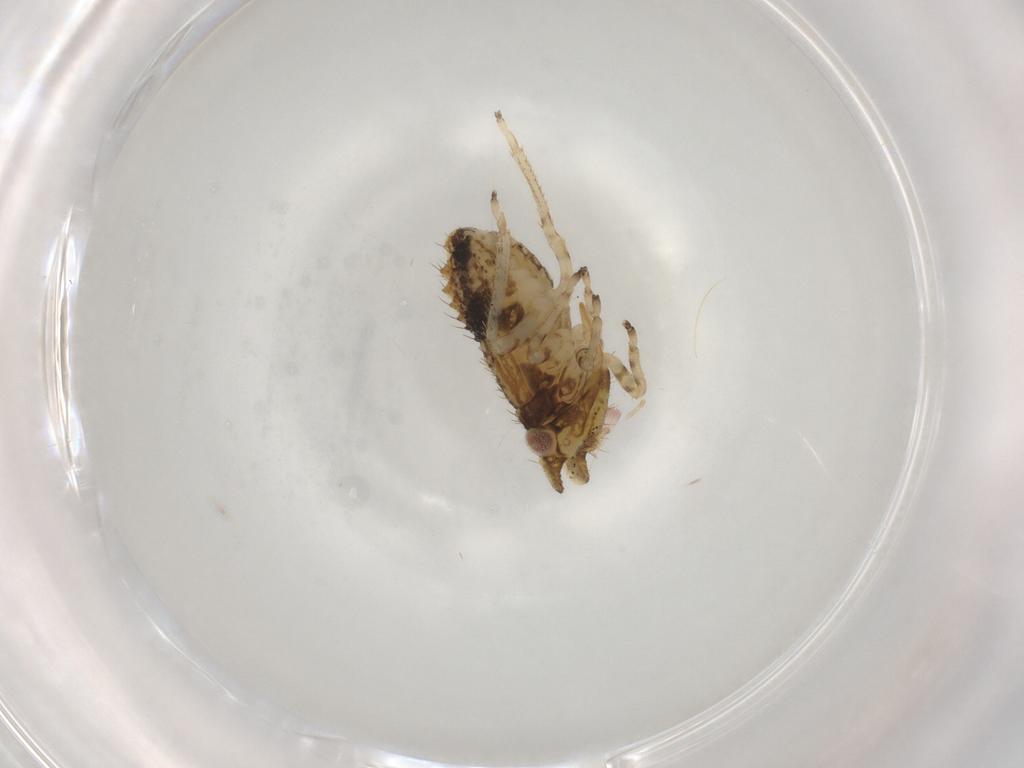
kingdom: Animalia
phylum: Arthropoda
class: Insecta
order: Hemiptera
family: Cicadellidae
